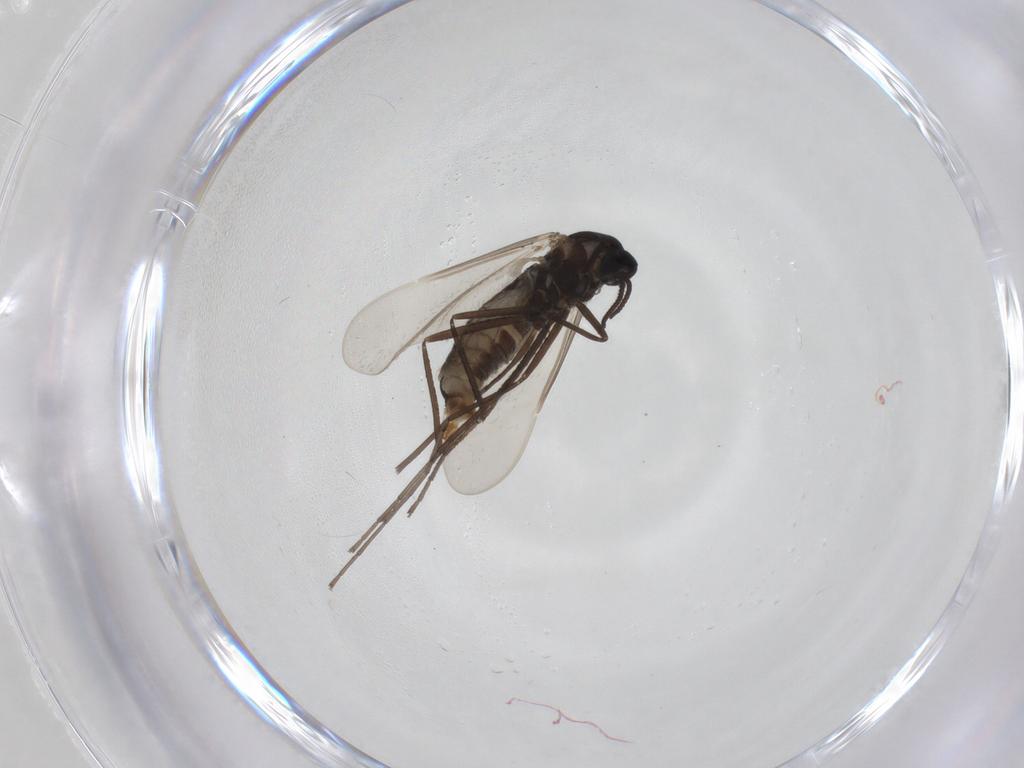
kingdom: Animalia
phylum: Arthropoda
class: Insecta
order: Diptera
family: Cecidomyiidae
